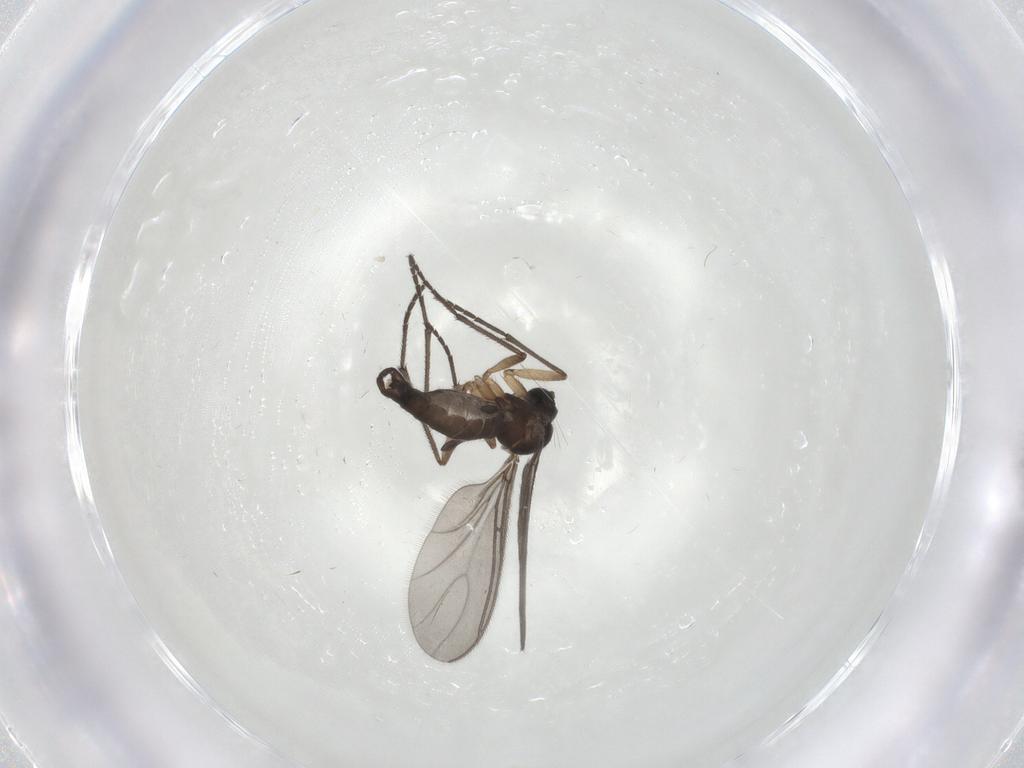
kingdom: Animalia
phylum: Arthropoda
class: Insecta
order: Diptera
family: Sciaridae
